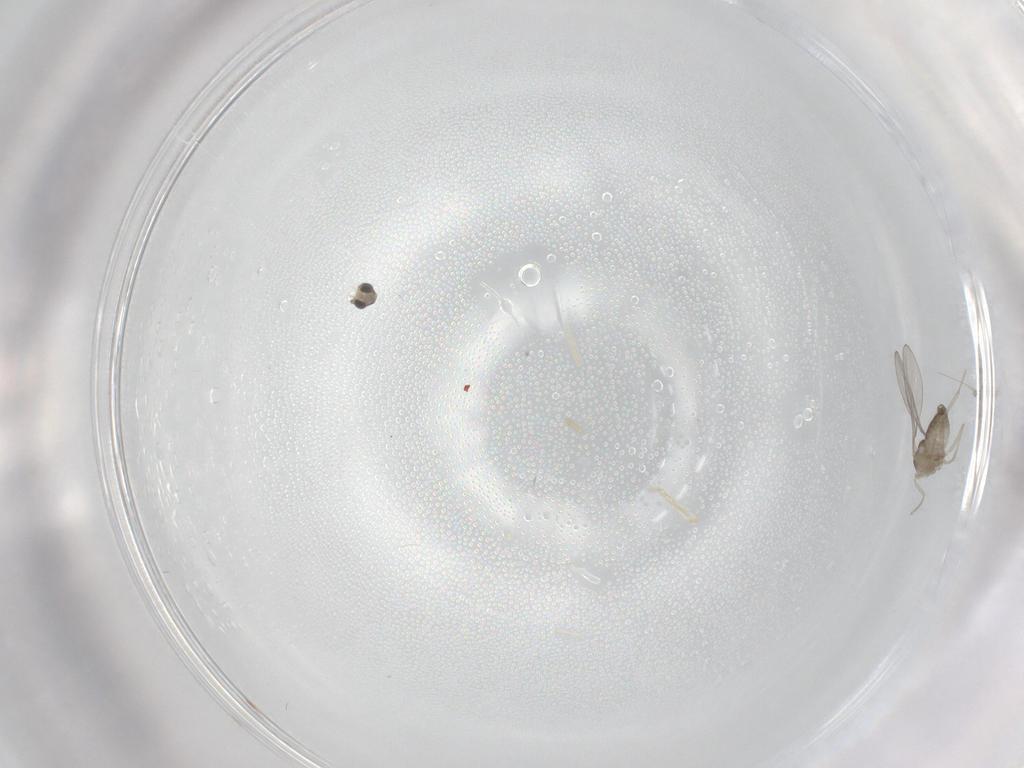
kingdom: Animalia
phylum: Arthropoda
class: Insecta
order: Diptera
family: Cecidomyiidae
